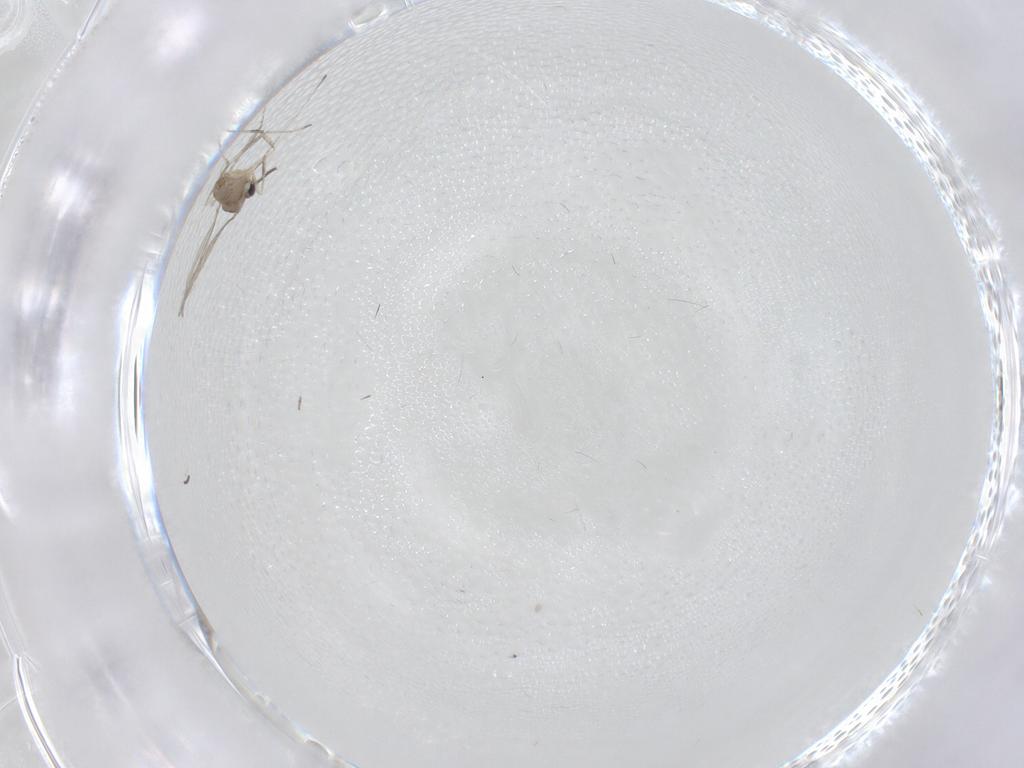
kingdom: Animalia
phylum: Arthropoda
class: Insecta
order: Diptera
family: Cecidomyiidae
